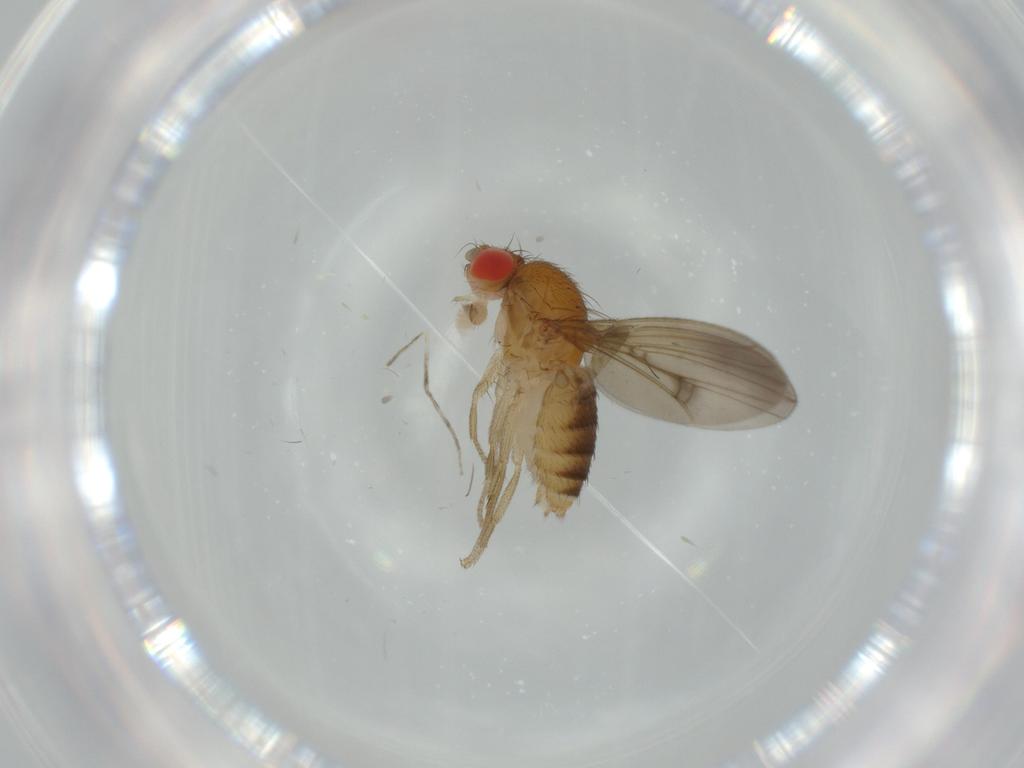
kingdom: Animalia
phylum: Arthropoda
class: Insecta
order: Diptera
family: Drosophilidae
